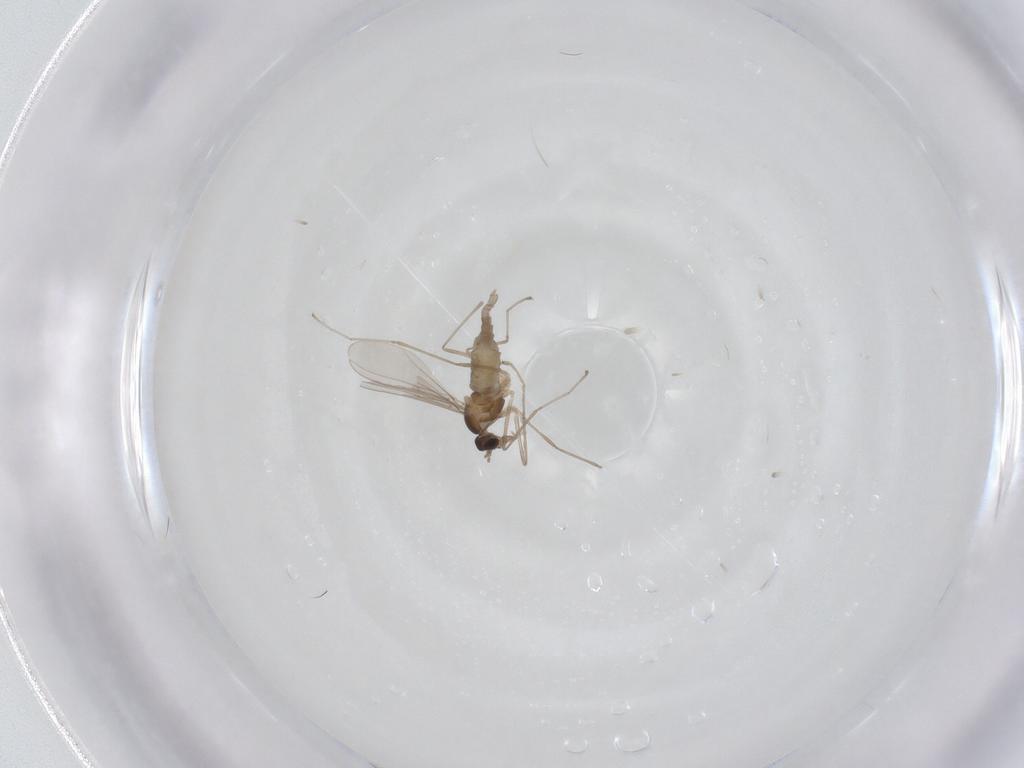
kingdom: Animalia
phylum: Arthropoda
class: Insecta
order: Diptera
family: Cecidomyiidae
